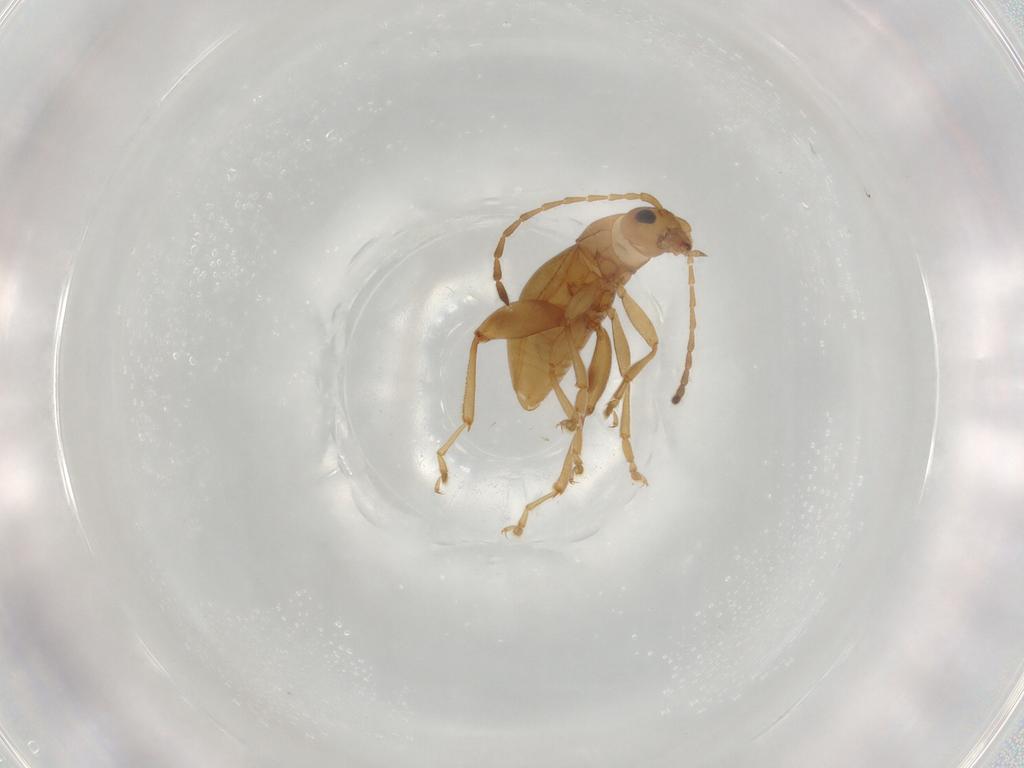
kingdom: Animalia
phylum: Arthropoda
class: Insecta
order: Coleoptera
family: Chrysomelidae
